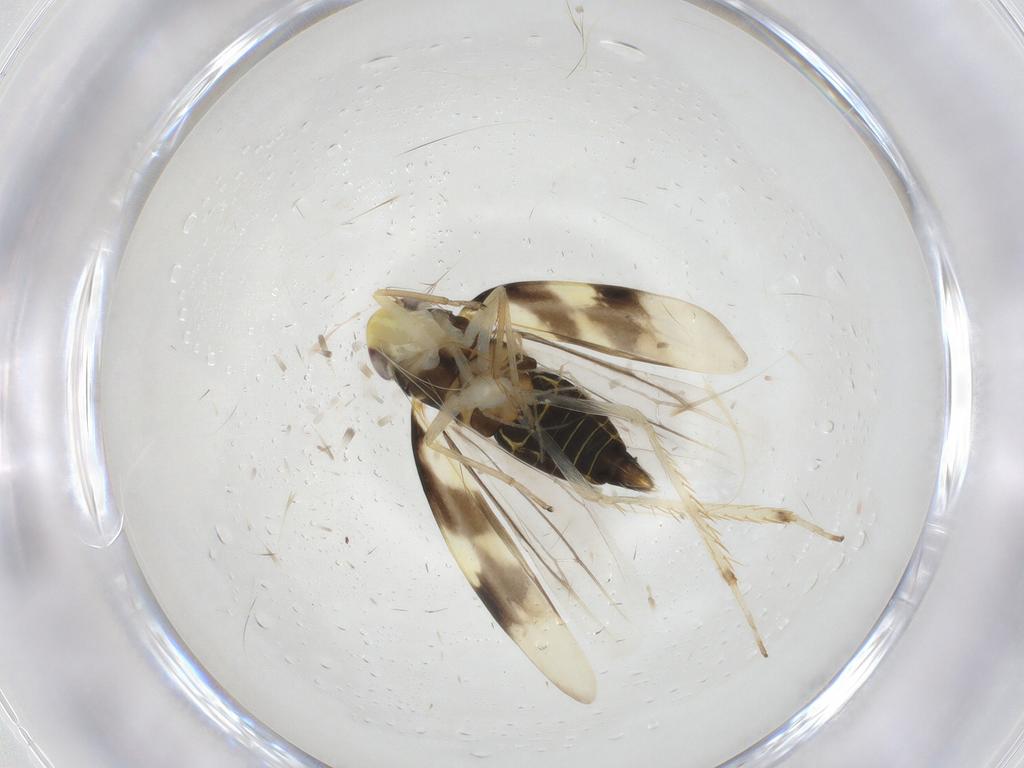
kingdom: Animalia
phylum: Arthropoda
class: Insecta
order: Hemiptera
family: Cicadellidae
